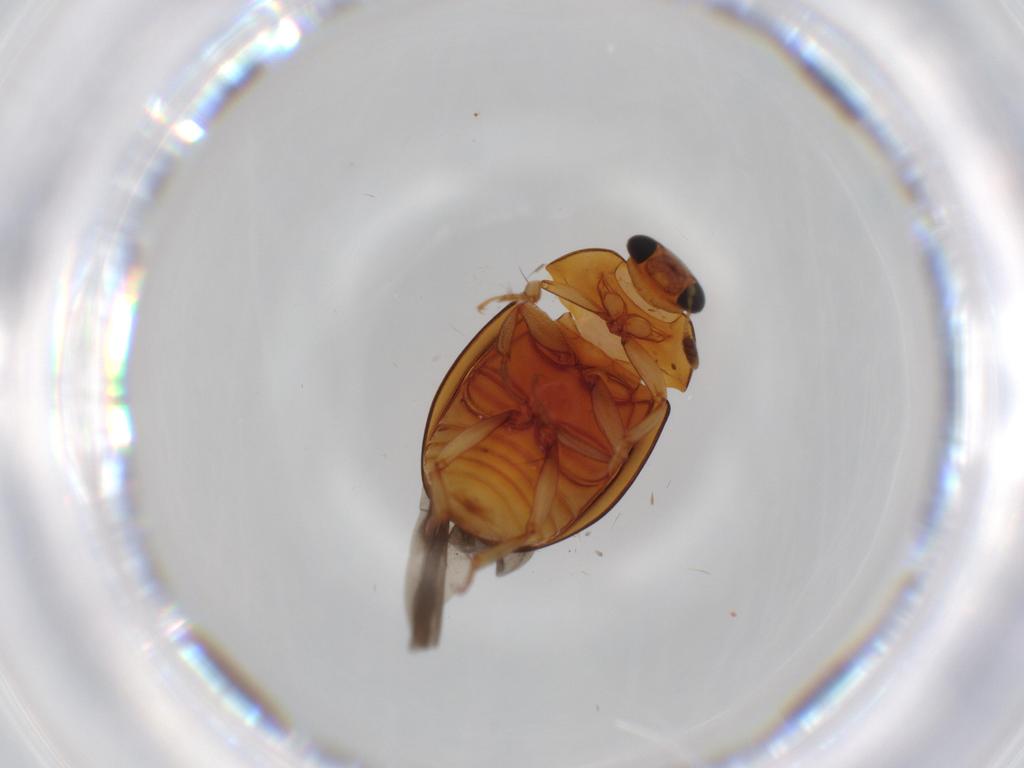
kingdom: Animalia
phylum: Arthropoda
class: Insecta
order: Coleoptera
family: Nitidulidae
